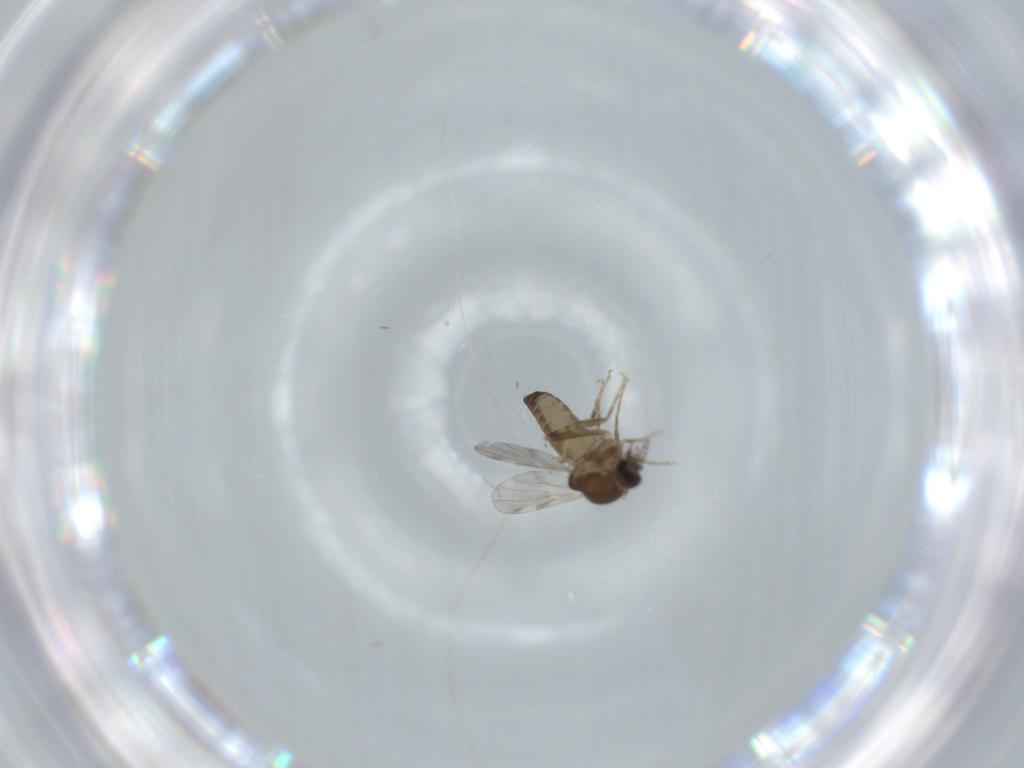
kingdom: Animalia
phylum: Arthropoda
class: Insecta
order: Diptera
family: Ceratopogonidae
